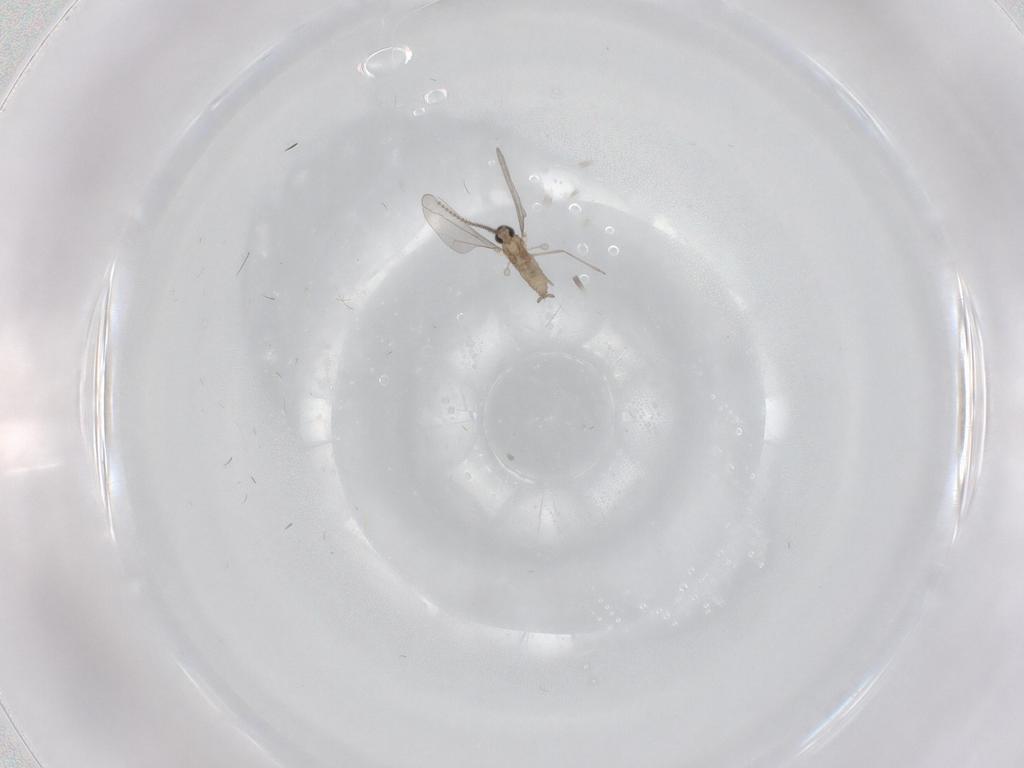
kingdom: Animalia
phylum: Arthropoda
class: Insecta
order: Diptera
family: Cecidomyiidae
